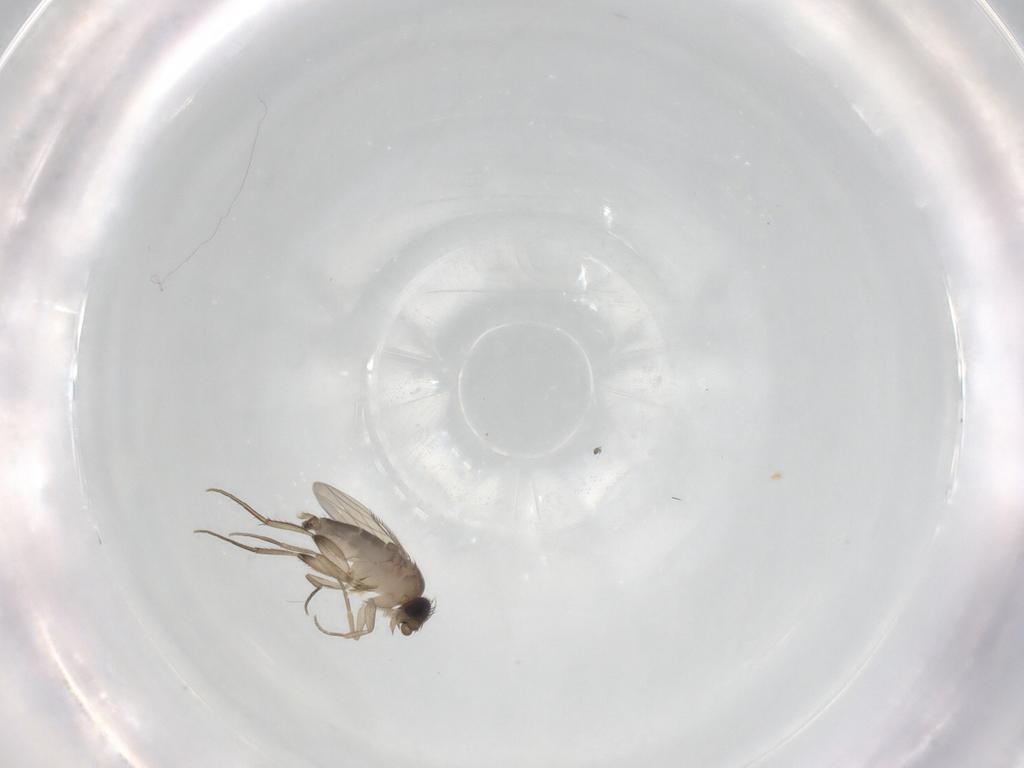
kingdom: Animalia
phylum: Arthropoda
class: Insecta
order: Diptera
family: Phoridae
